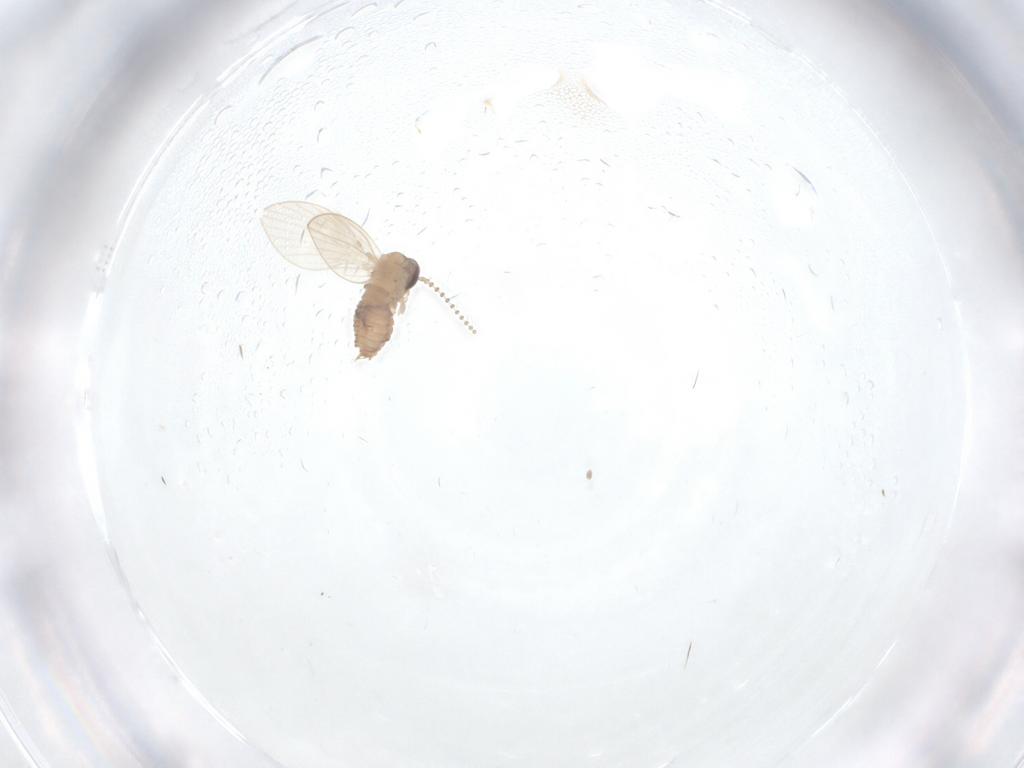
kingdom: Animalia
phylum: Arthropoda
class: Insecta
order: Diptera
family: Psychodidae
